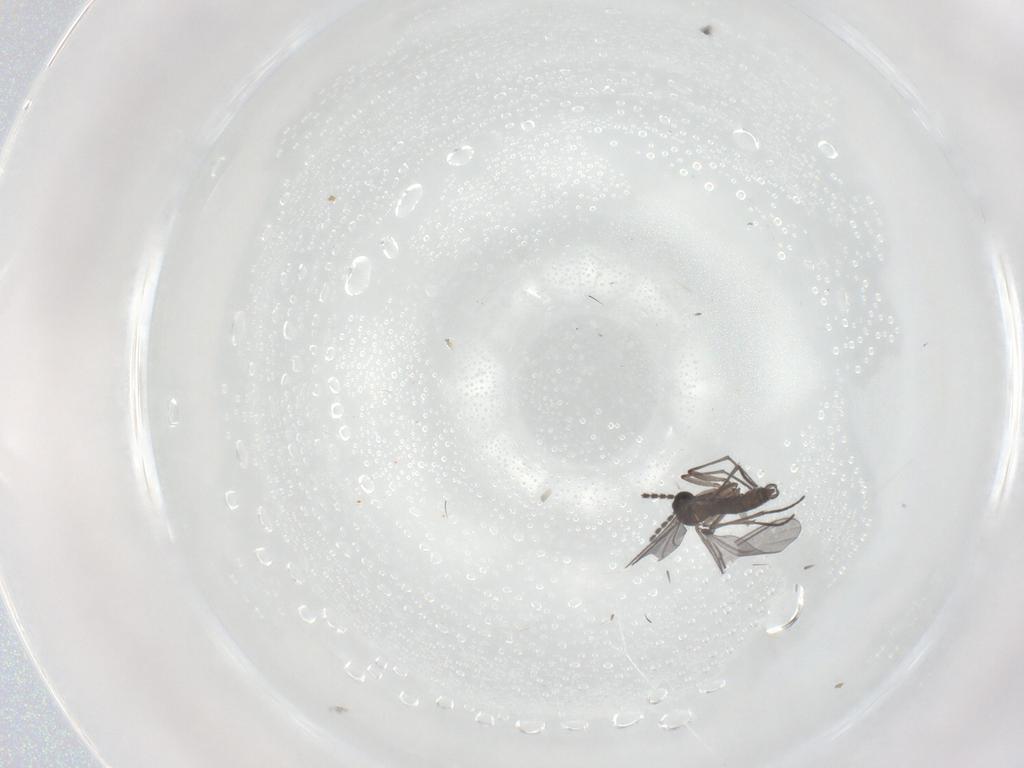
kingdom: Animalia
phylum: Arthropoda
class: Insecta
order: Diptera
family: Sciaridae
